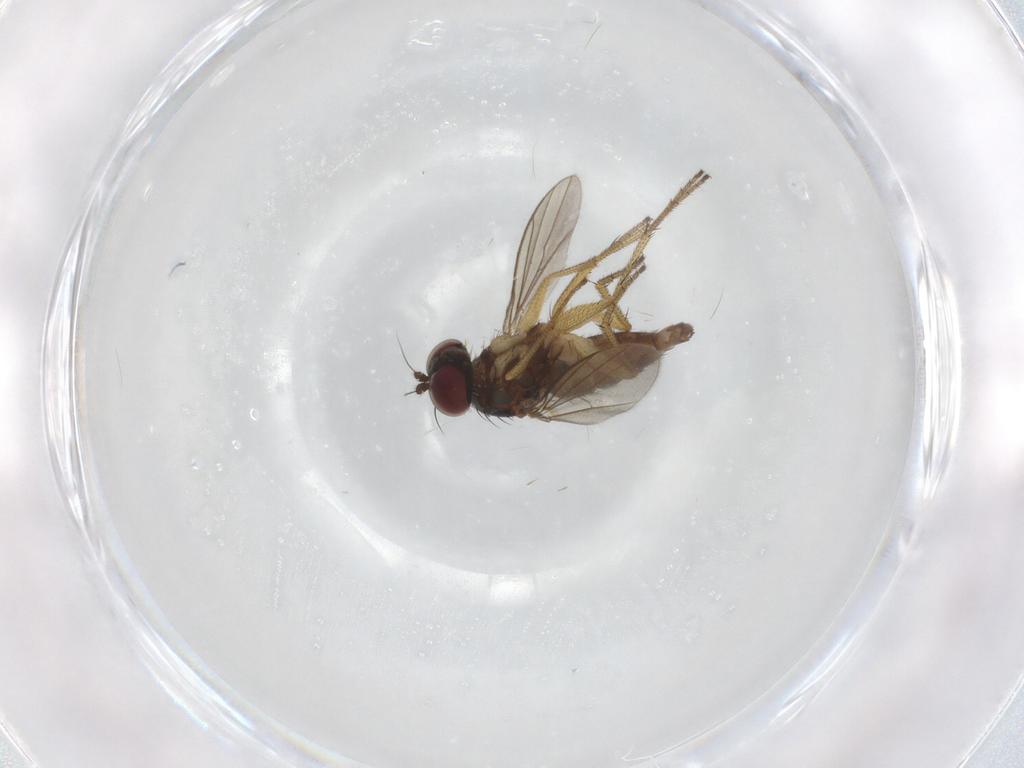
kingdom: Animalia
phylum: Arthropoda
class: Insecta
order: Diptera
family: Dolichopodidae
